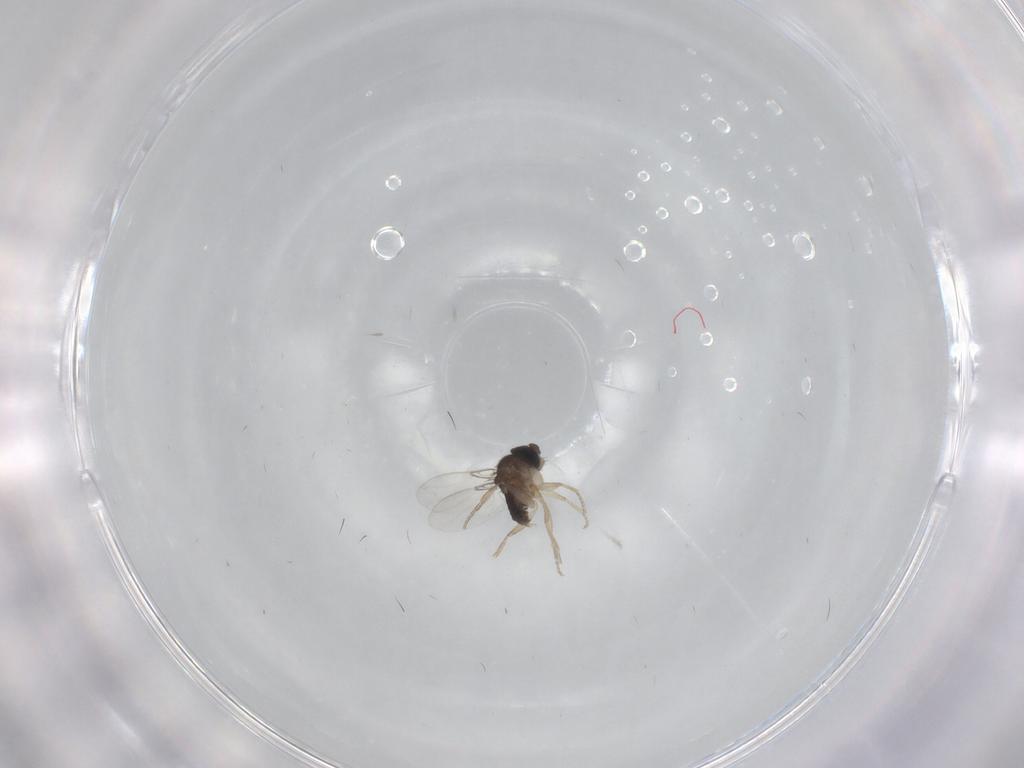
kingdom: Animalia
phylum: Arthropoda
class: Insecta
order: Diptera
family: Phoridae
